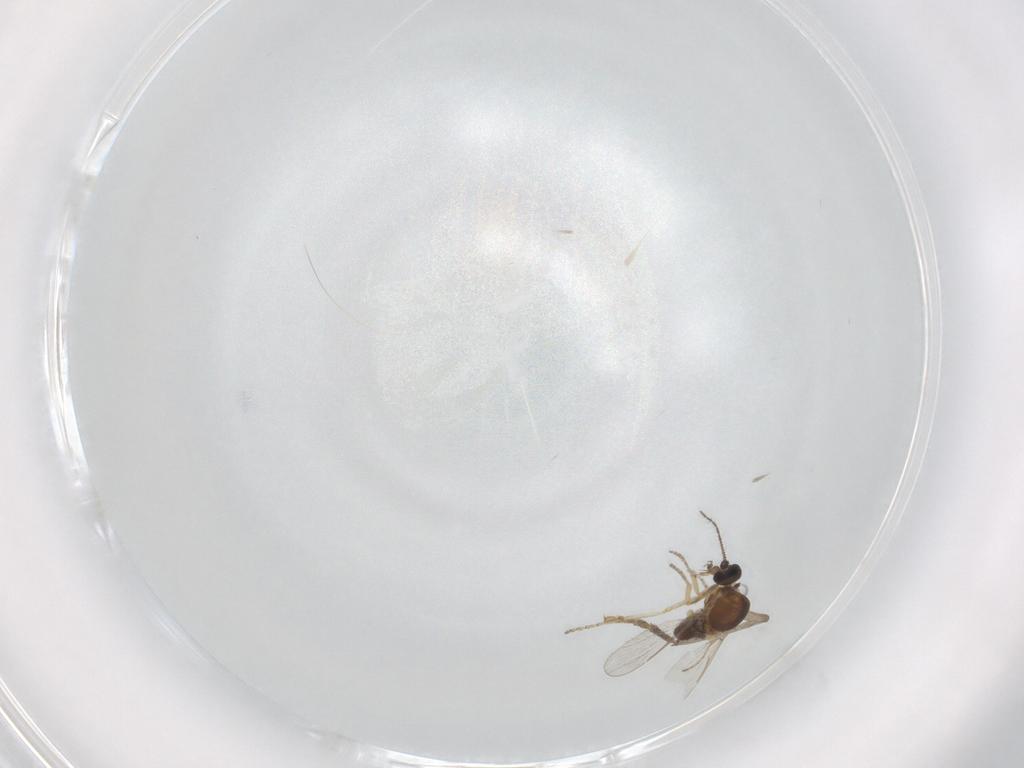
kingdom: Animalia
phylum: Arthropoda
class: Insecta
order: Diptera
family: Psychodidae
